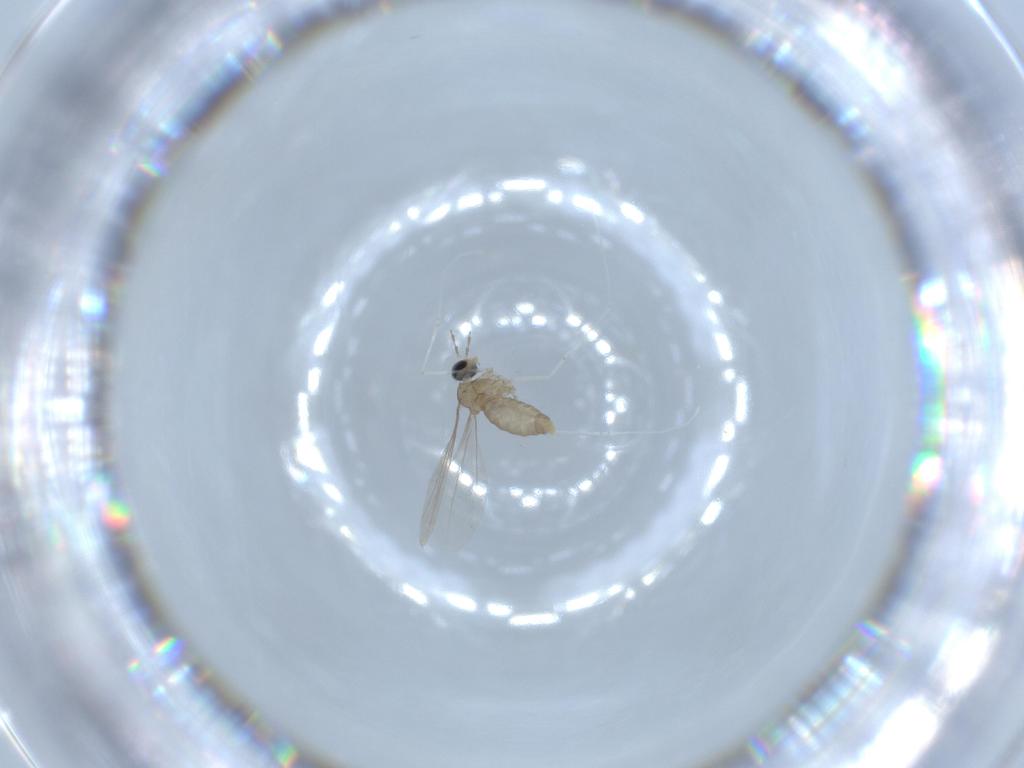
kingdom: Animalia
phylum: Arthropoda
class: Insecta
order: Diptera
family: Cecidomyiidae
